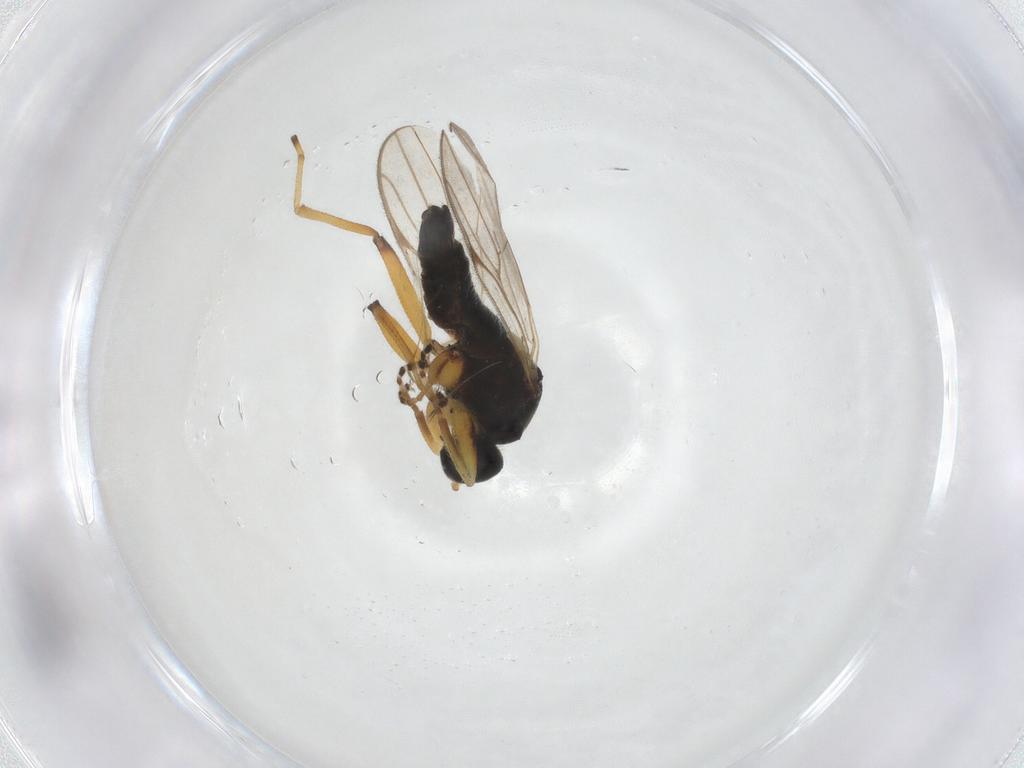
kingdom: Animalia
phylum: Arthropoda
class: Insecta
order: Diptera
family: Hybotidae
